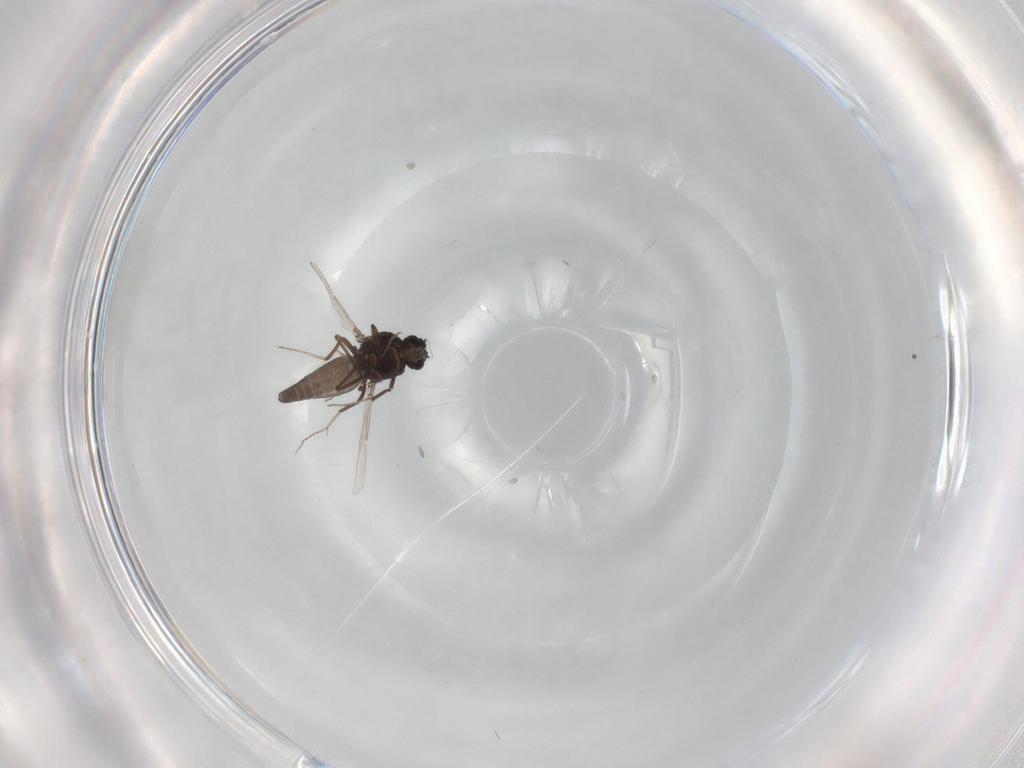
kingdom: Animalia
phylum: Arthropoda
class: Insecta
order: Diptera
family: Ceratopogonidae
